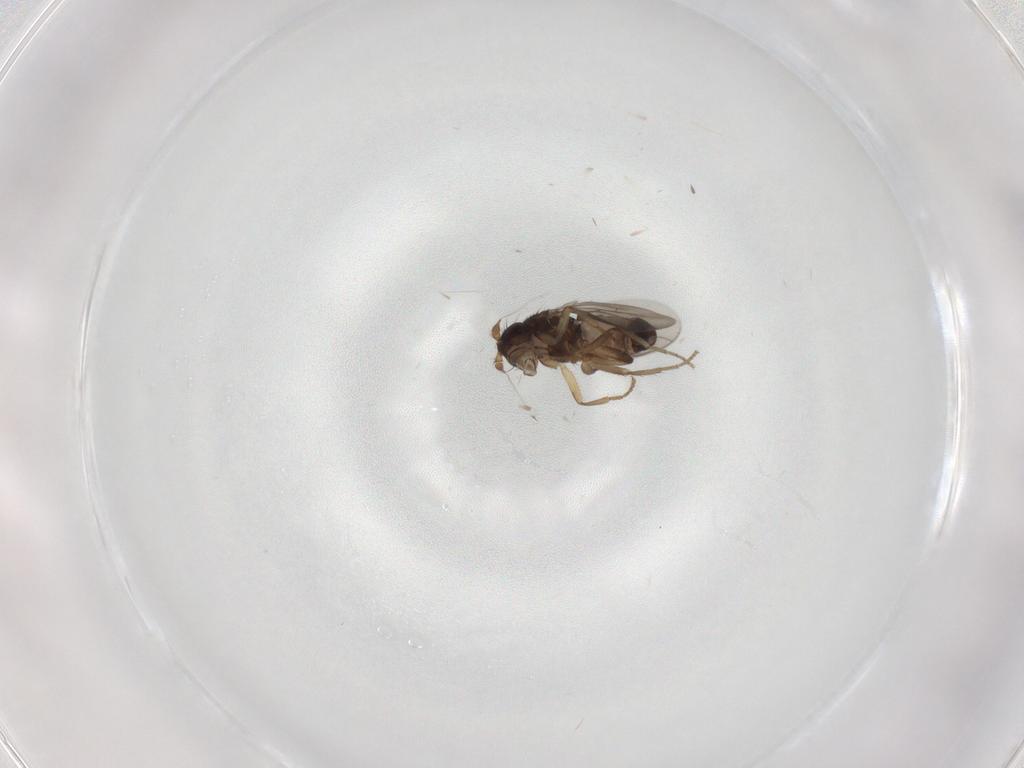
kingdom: Animalia
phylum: Arthropoda
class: Insecta
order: Diptera
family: Sphaeroceridae
